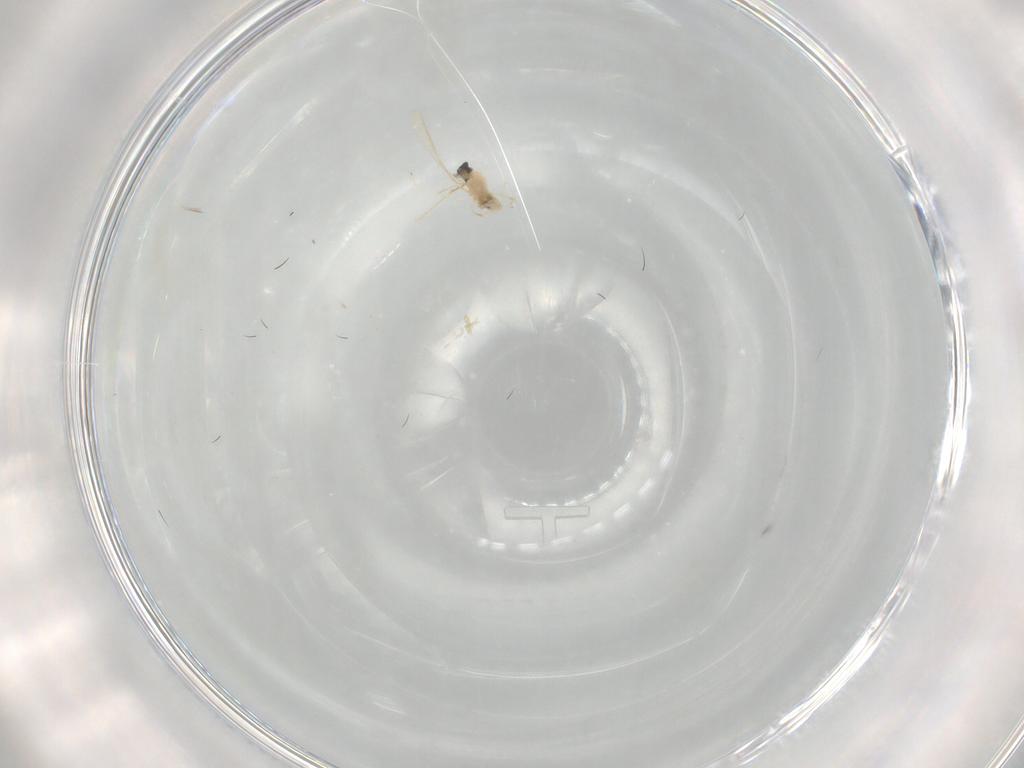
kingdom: Animalia
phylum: Arthropoda
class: Insecta
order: Diptera
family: Cecidomyiidae
